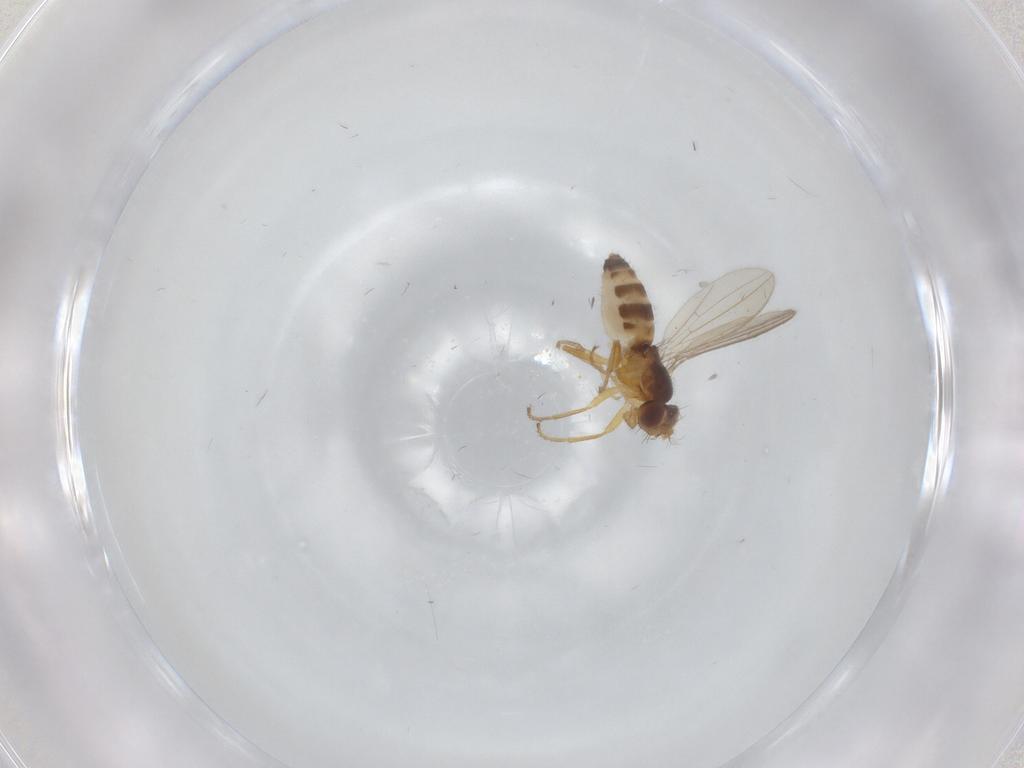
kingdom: Animalia
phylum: Arthropoda
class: Insecta
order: Diptera
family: Periscelididae
